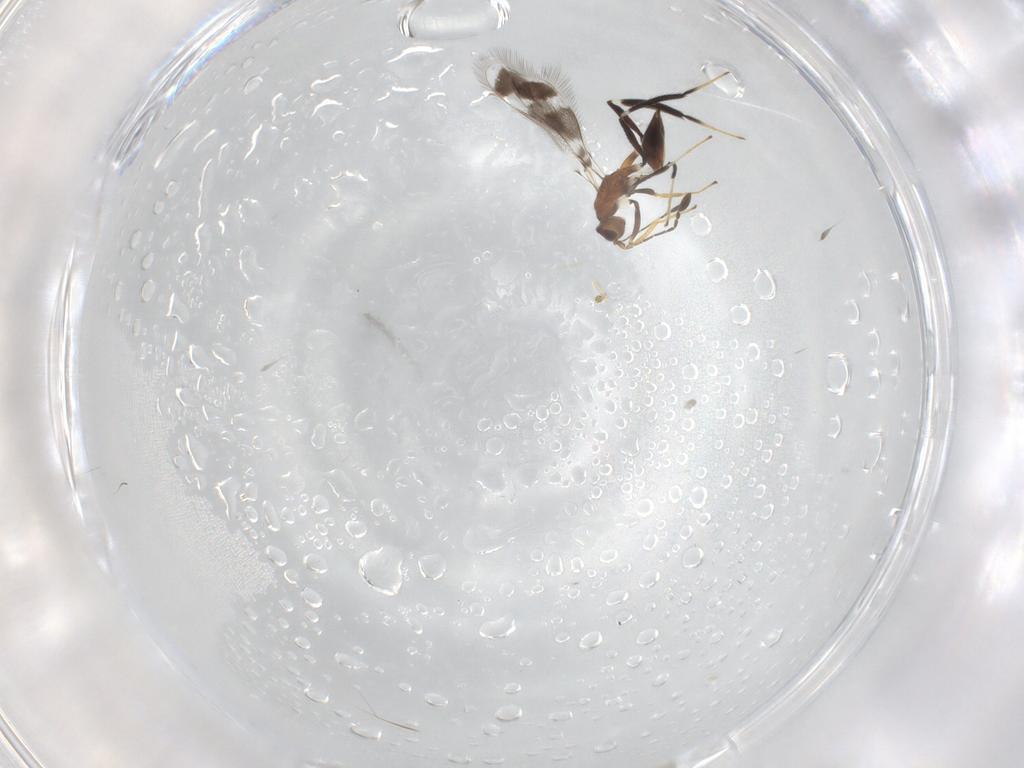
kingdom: Animalia
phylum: Arthropoda
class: Insecta
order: Hymenoptera
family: Mymaridae
